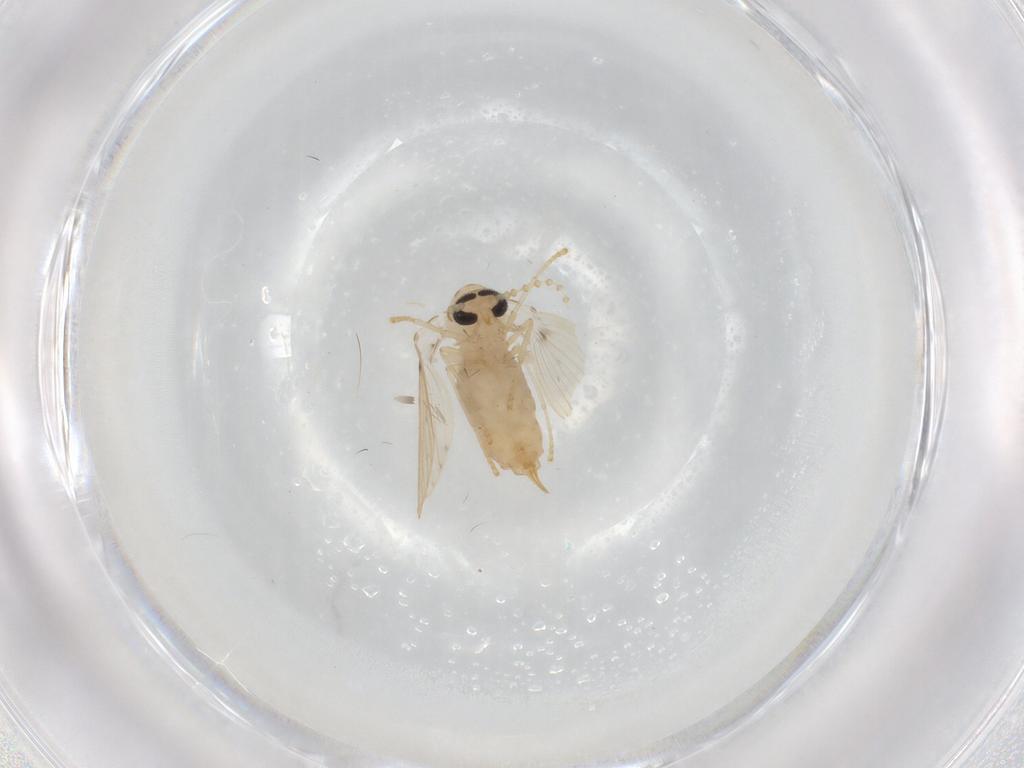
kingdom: Animalia
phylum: Arthropoda
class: Insecta
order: Diptera
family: Psychodidae
